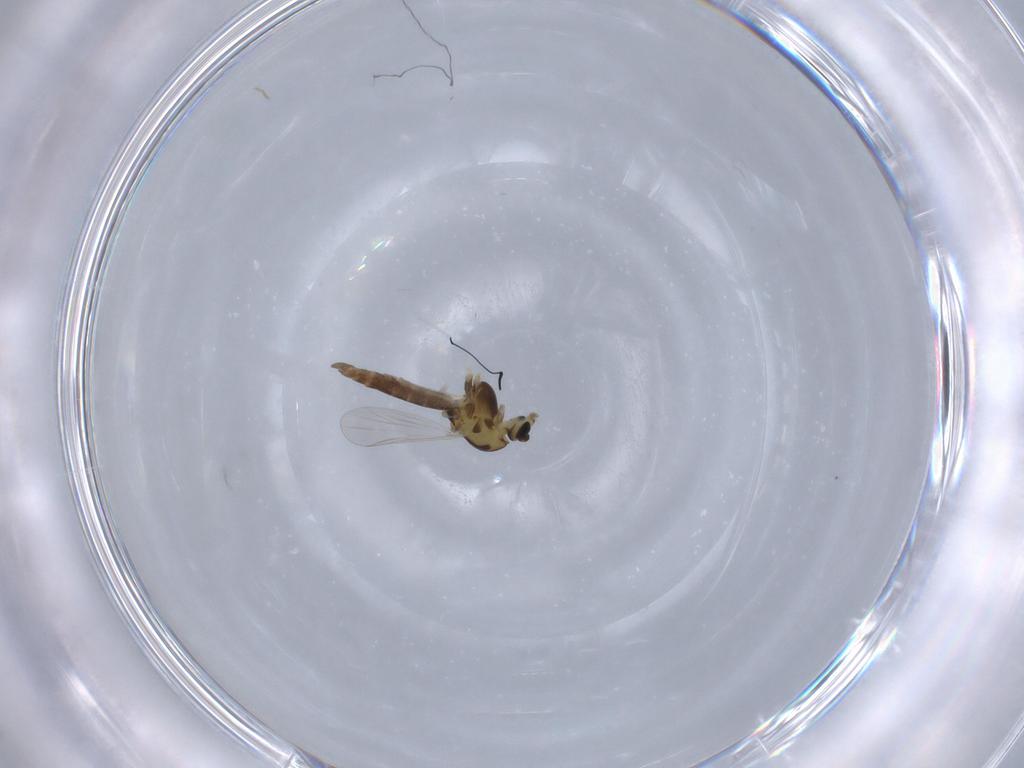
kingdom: Animalia
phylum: Arthropoda
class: Insecta
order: Diptera
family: Chironomidae
